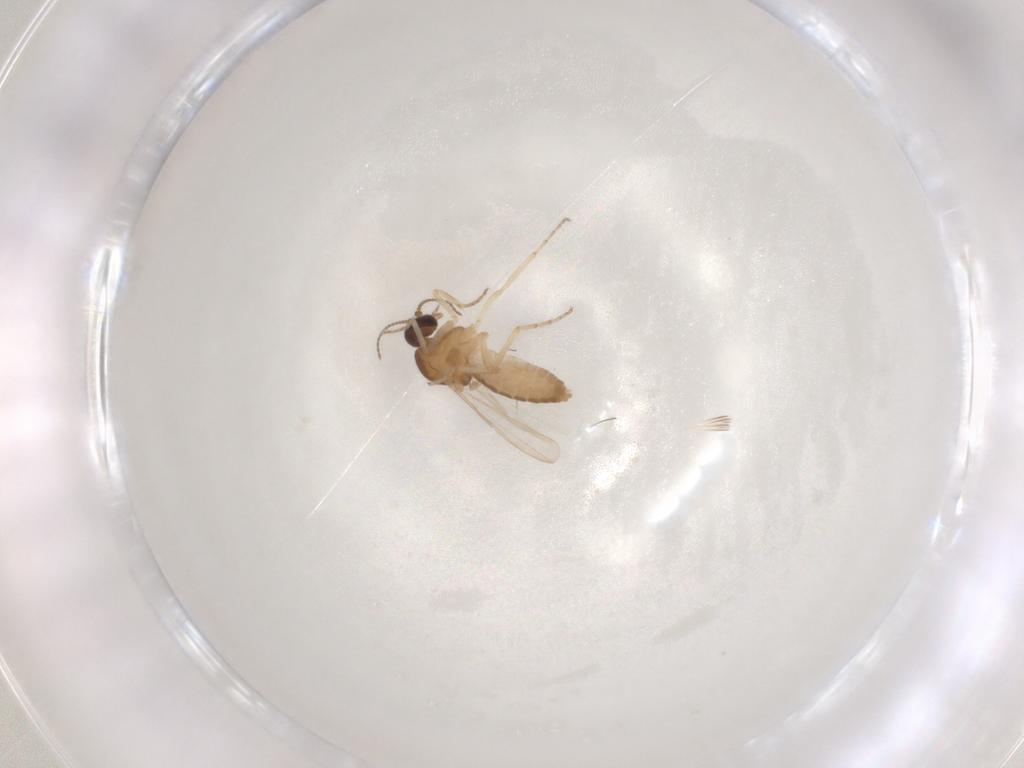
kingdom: Animalia
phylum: Arthropoda
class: Insecta
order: Diptera
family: Ceratopogonidae
